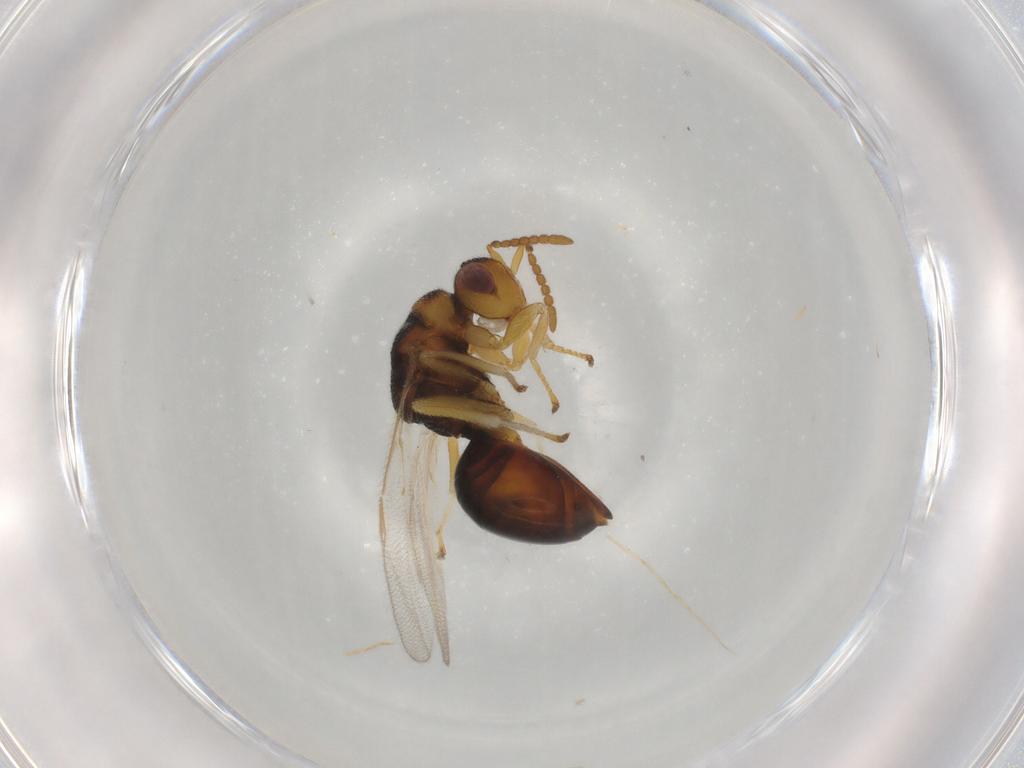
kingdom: Animalia
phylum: Arthropoda
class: Insecta
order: Hymenoptera
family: Eurytomidae
